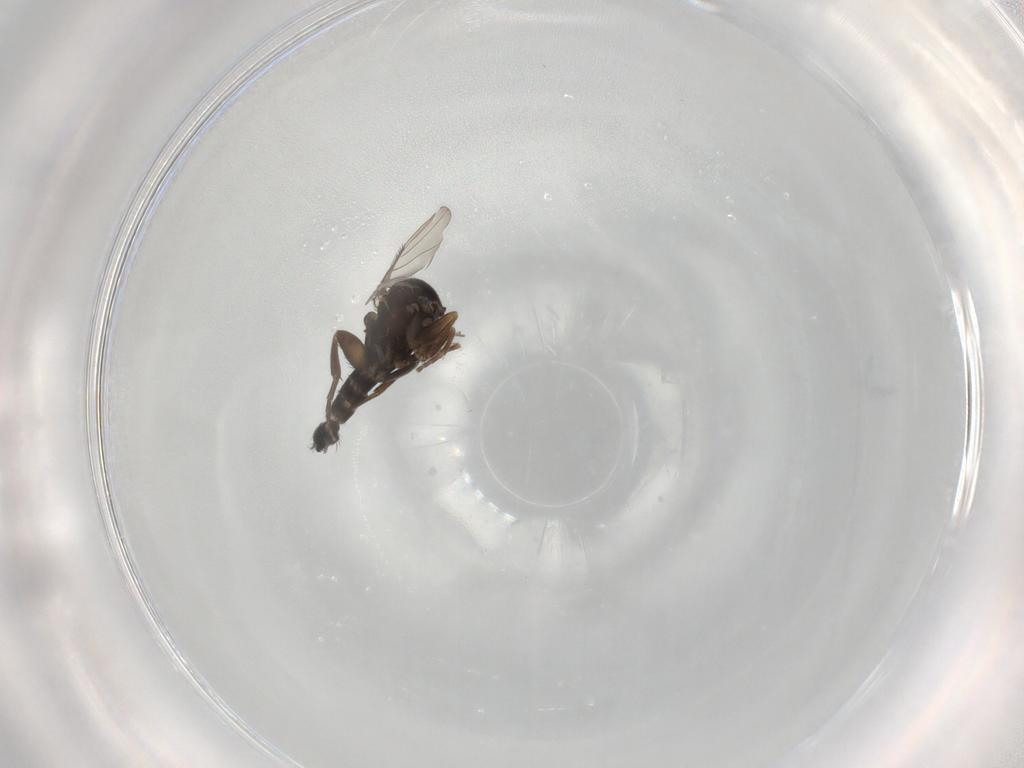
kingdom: Animalia
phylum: Arthropoda
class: Insecta
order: Diptera
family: Phoridae
